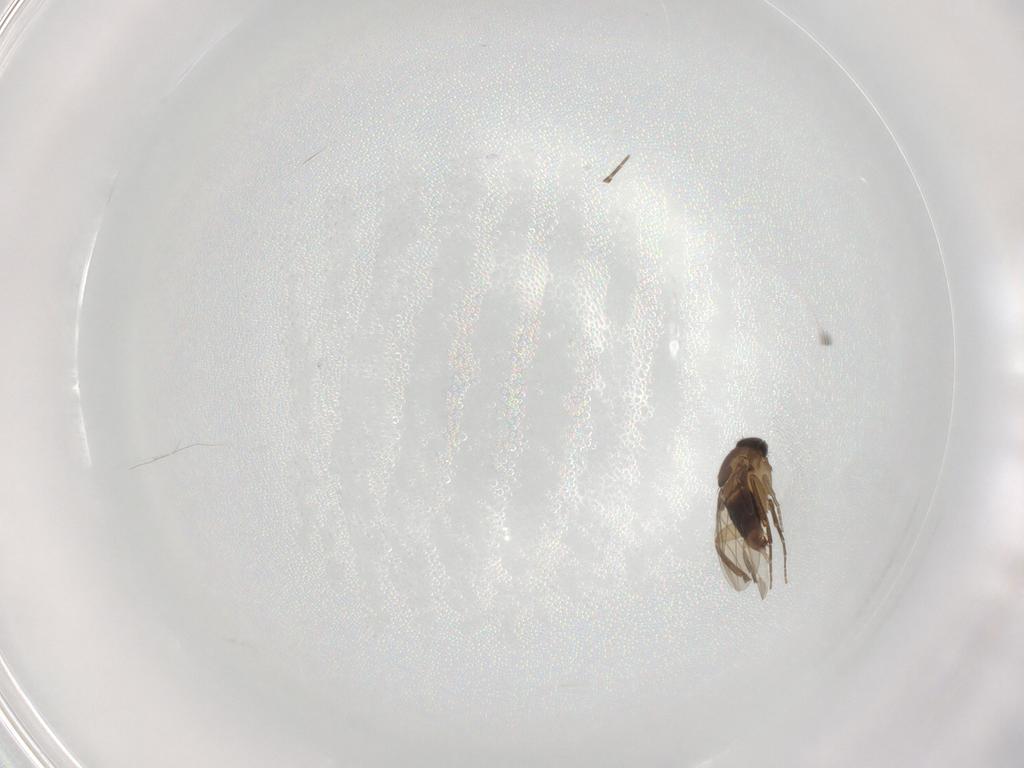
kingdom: Animalia
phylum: Arthropoda
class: Insecta
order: Diptera
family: Phoridae
